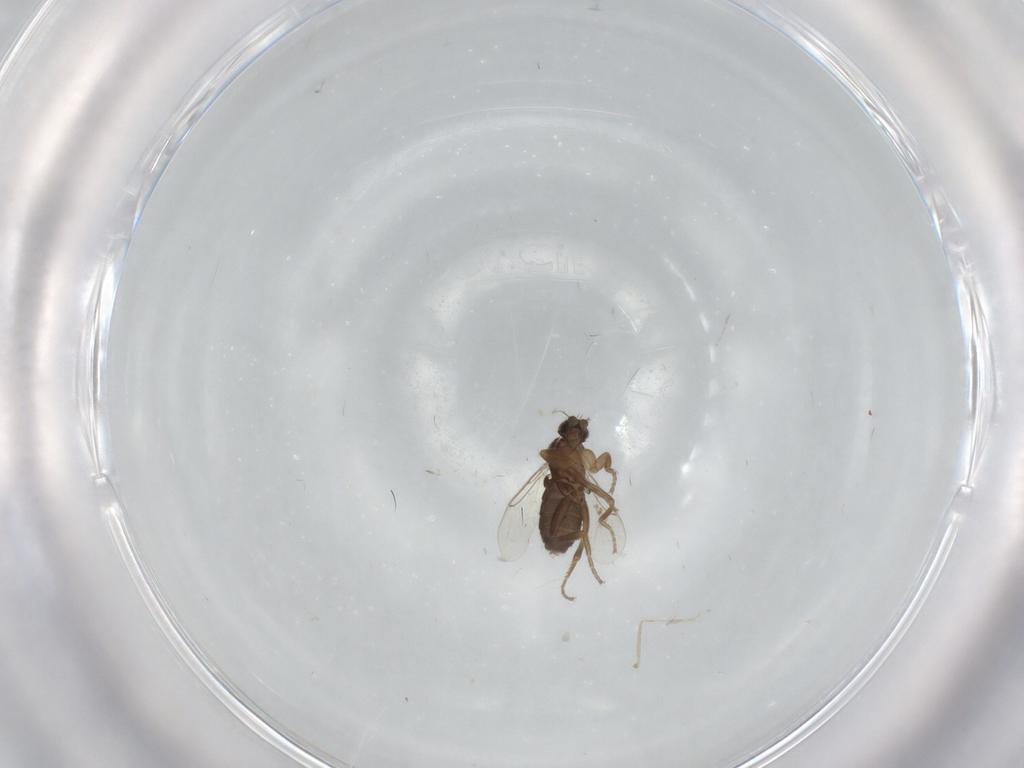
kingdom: Animalia
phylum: Arthropoda
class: Insecta
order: Diptera
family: Phoridae
